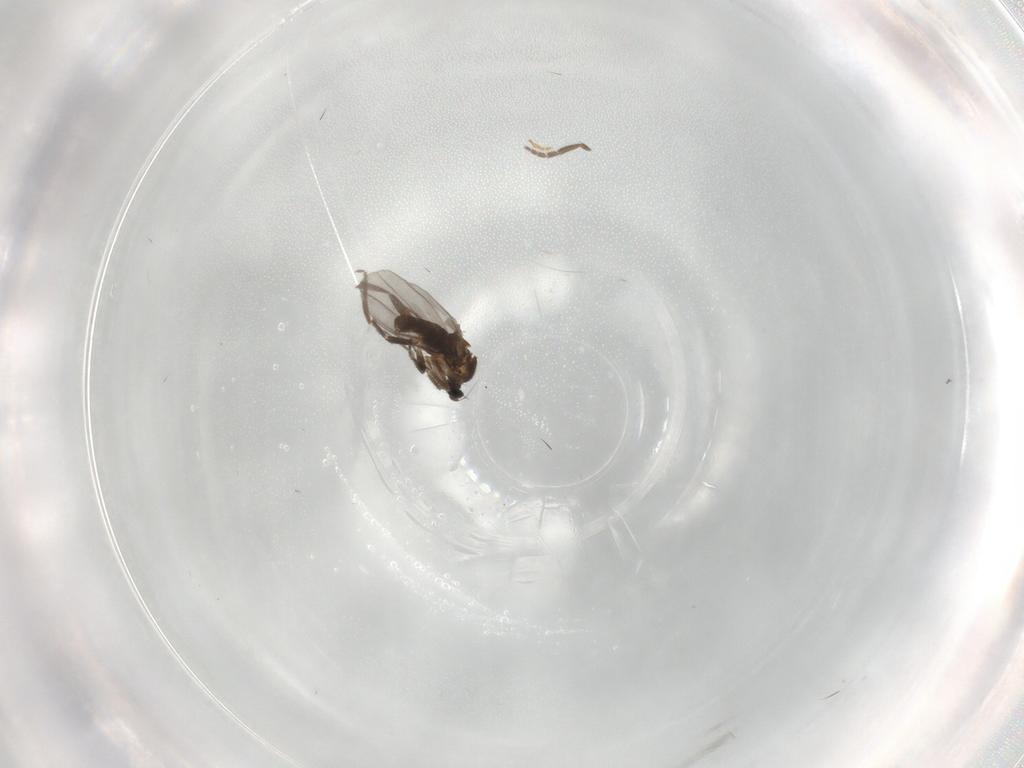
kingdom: Animalia
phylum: Arthropoda
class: Insecta
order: Diptera
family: Phoridae
